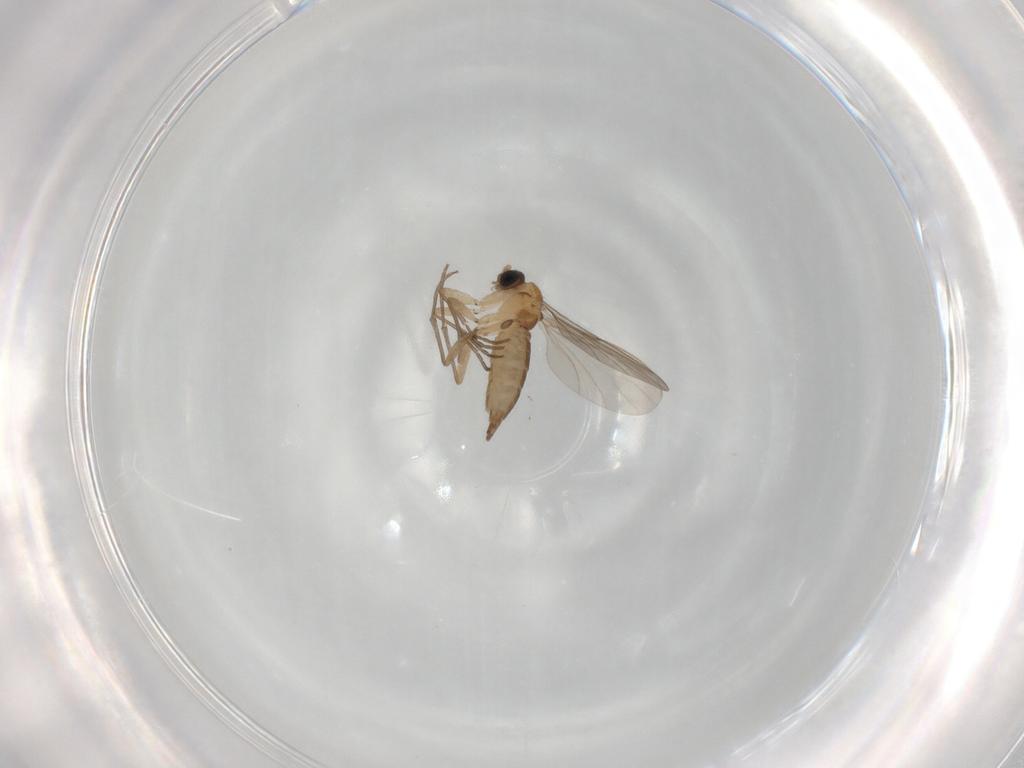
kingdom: Animalia
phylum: Arthropoda
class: Insecta
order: Diptera
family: Sciaridae
